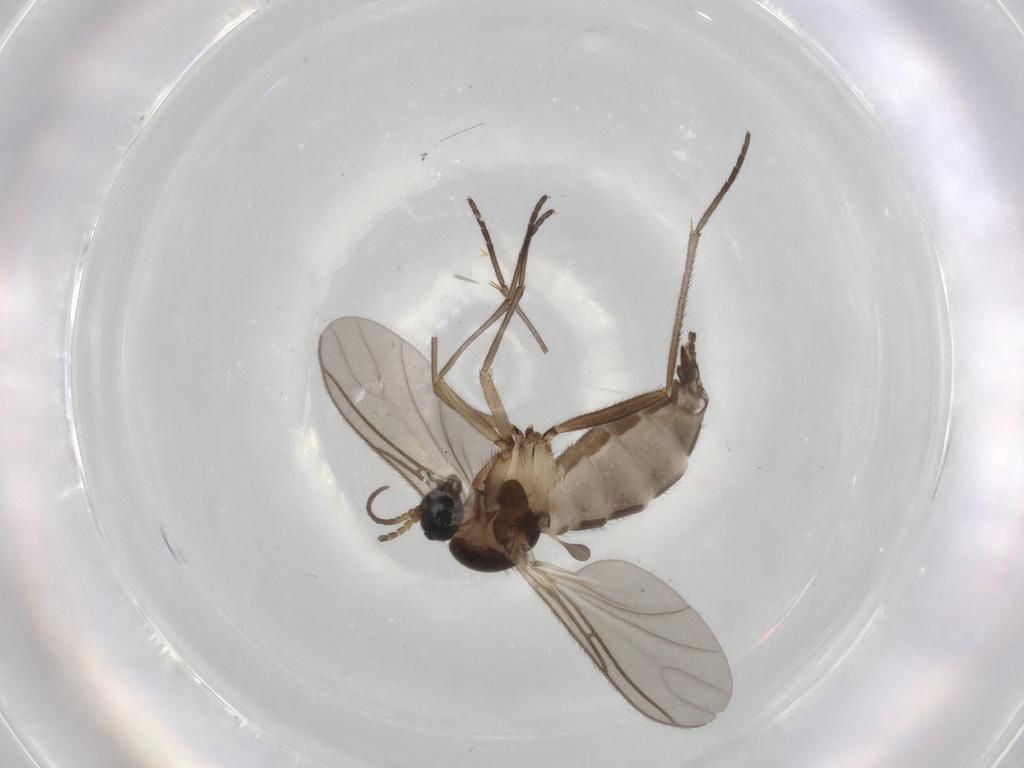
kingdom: Animalia
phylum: Arthropoda
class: Insecta
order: Diptera
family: Sciaridae
